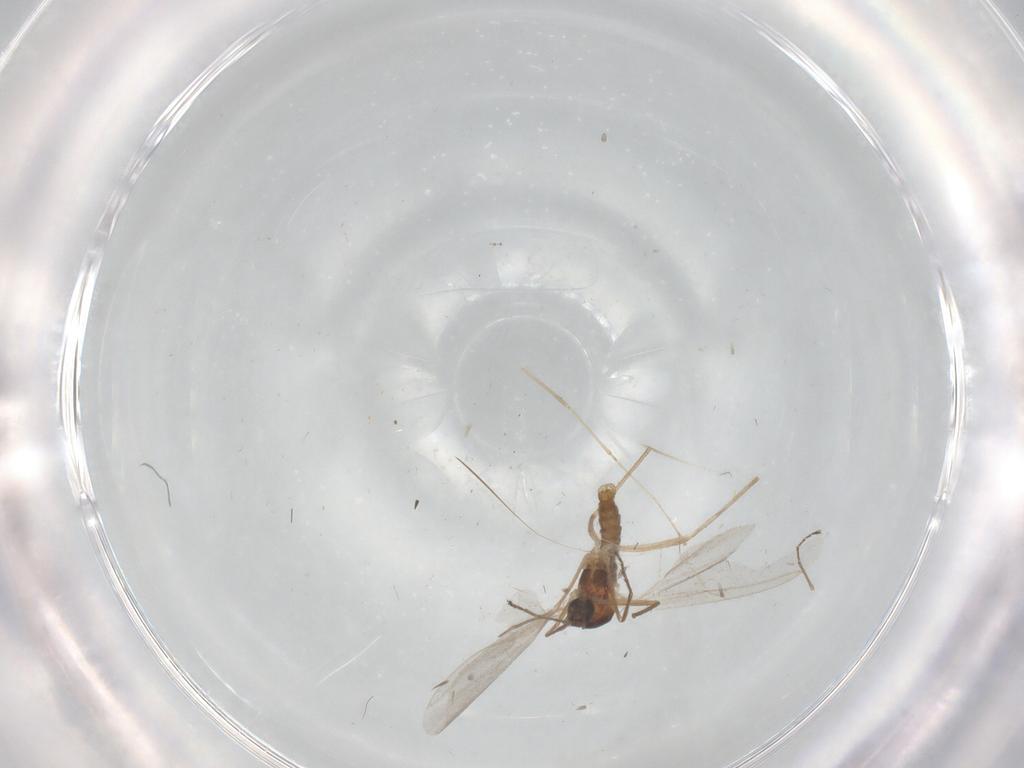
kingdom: Animalia
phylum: Arthropoda
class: Insecta
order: Diptera
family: Cecidomyiidae
